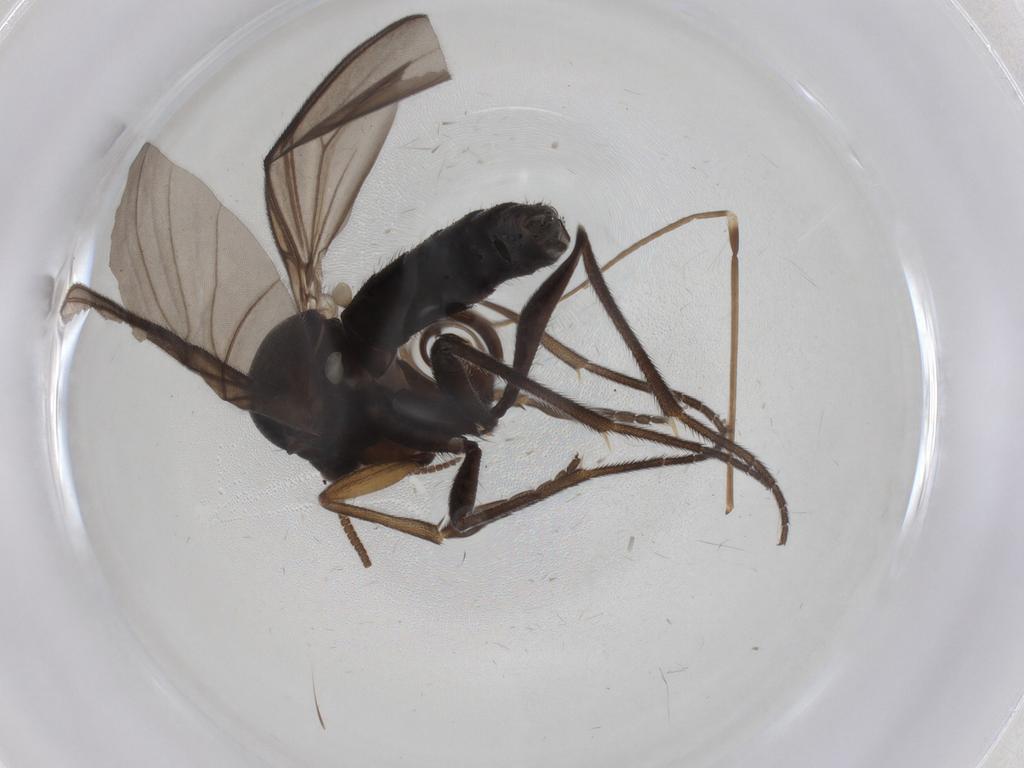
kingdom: Animalia
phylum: Arthropoda
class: Insecta
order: Diptera
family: Mycetophilidae
